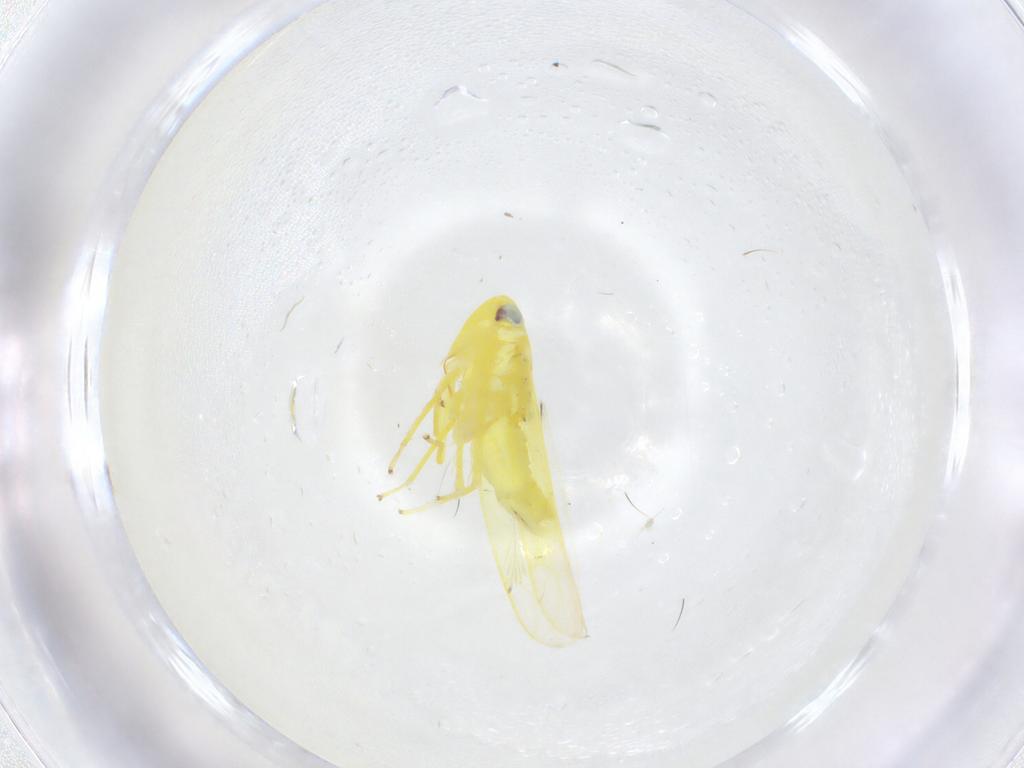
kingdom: Animalia
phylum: Arthropoda
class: Insecta
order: Hemiptera
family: Cicadellidae
